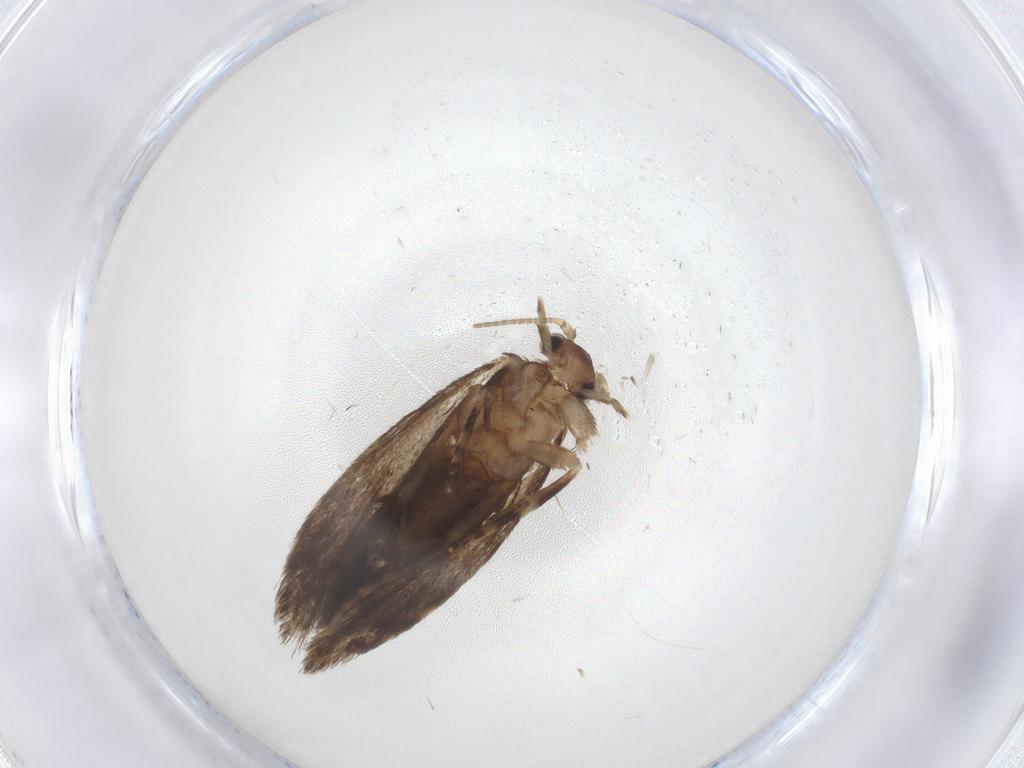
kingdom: Animalia
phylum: Arthropoda
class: Insecta
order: Lepidoptera
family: Dryadaulidae
